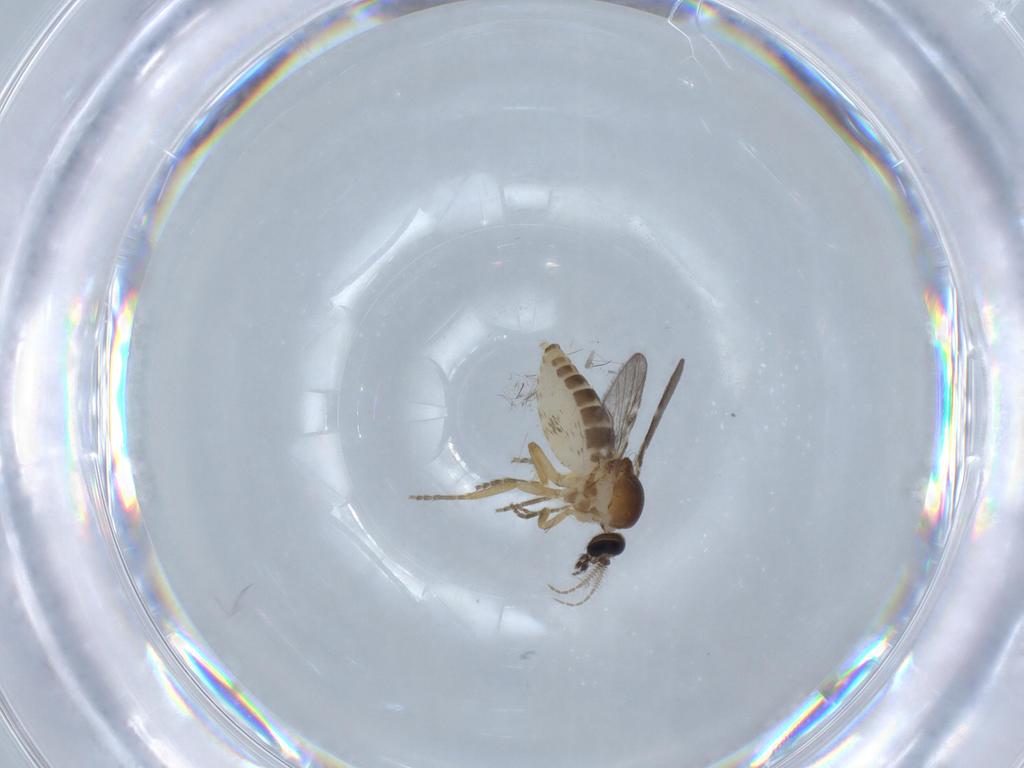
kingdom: Animalia
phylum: Arthropoda
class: Insecta
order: Diptera
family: Ceratopogonidae
